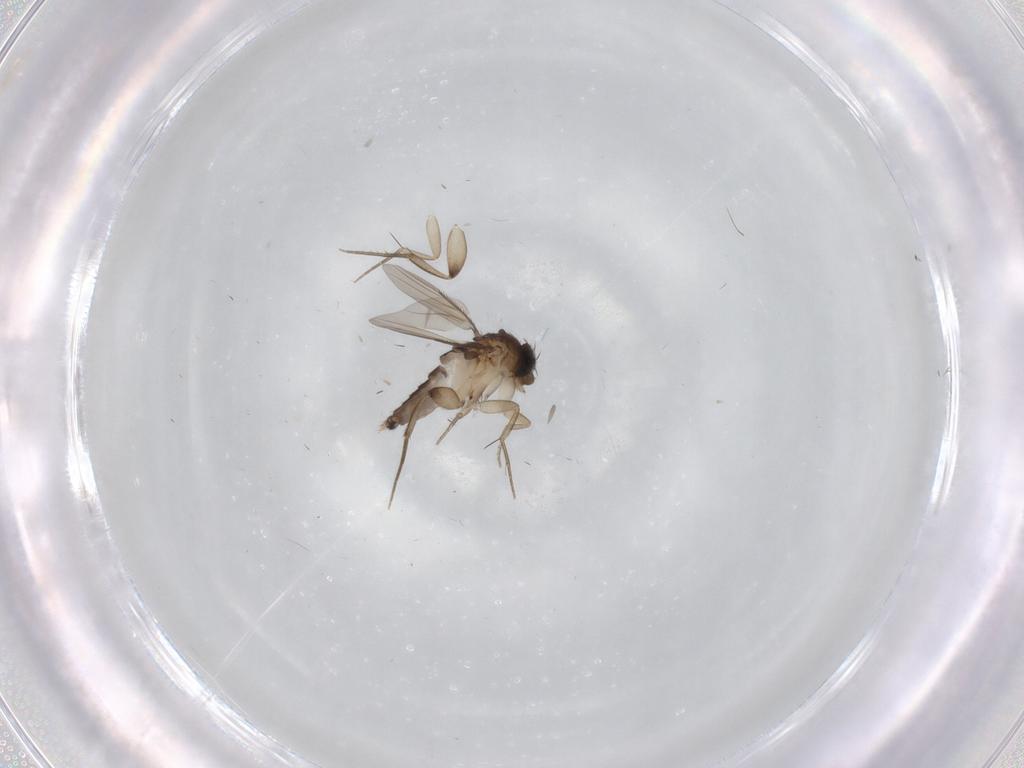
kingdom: Animalia
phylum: Arthropoda
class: Insecta
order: Diptera
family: Phoridae
